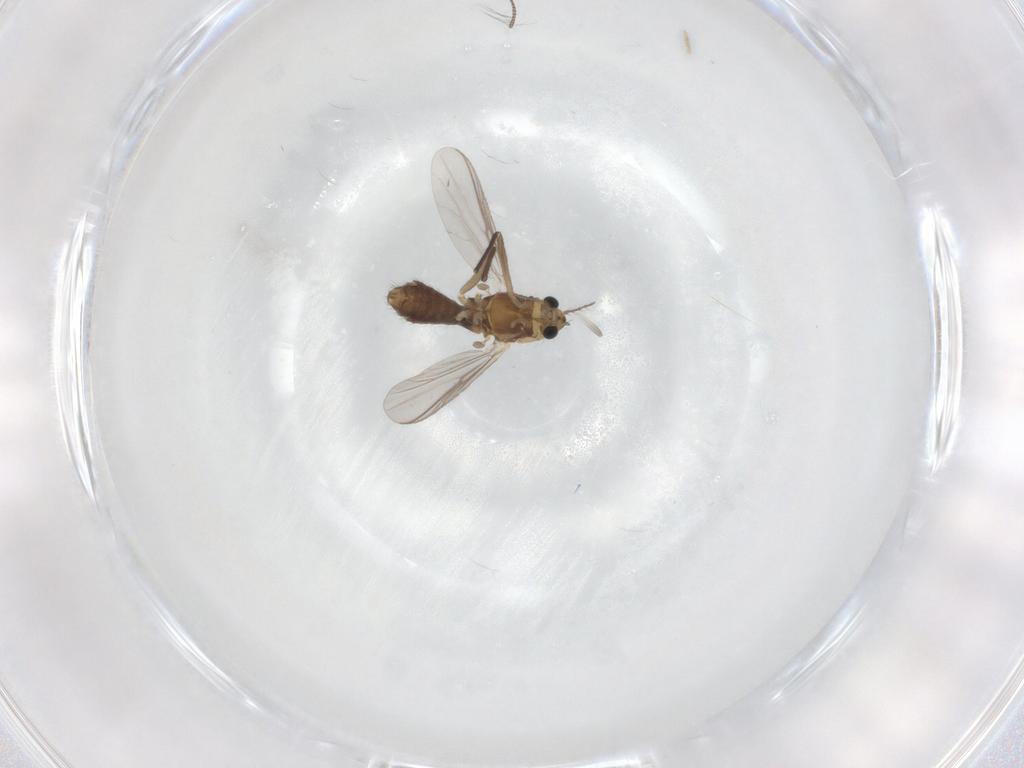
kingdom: Animalia
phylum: Arthropoda
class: Insecta
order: Diptera
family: Chironomidae
